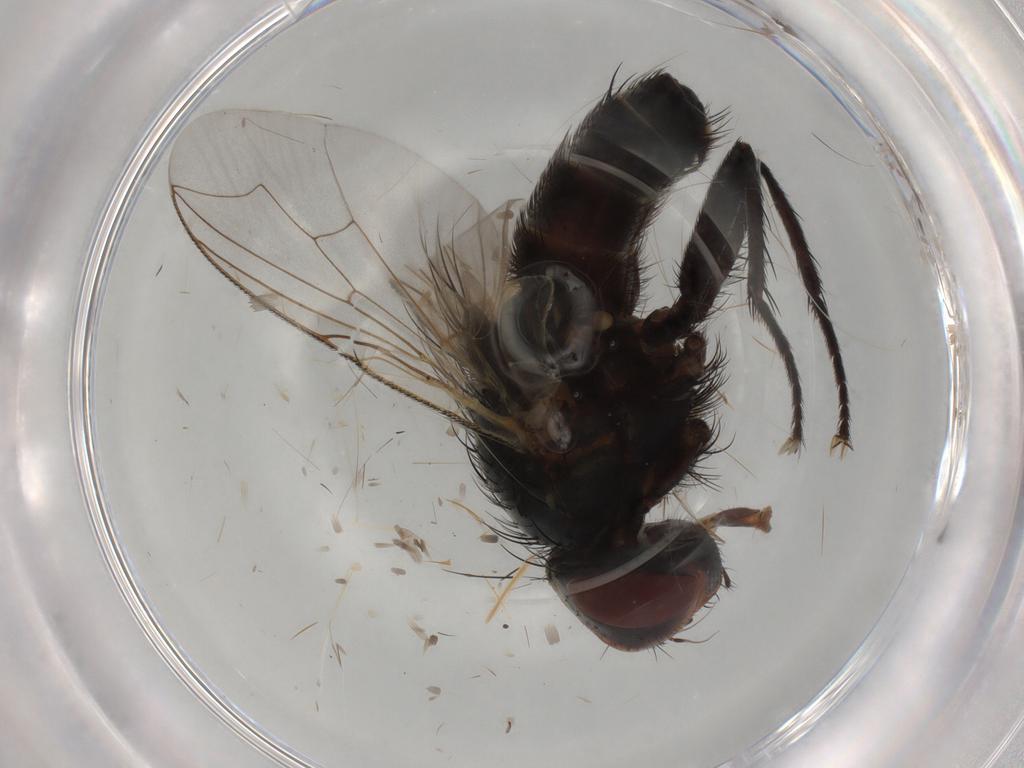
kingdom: Animalia
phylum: Arthropoda
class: Insecta
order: Diptera
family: Sarcophagidae
